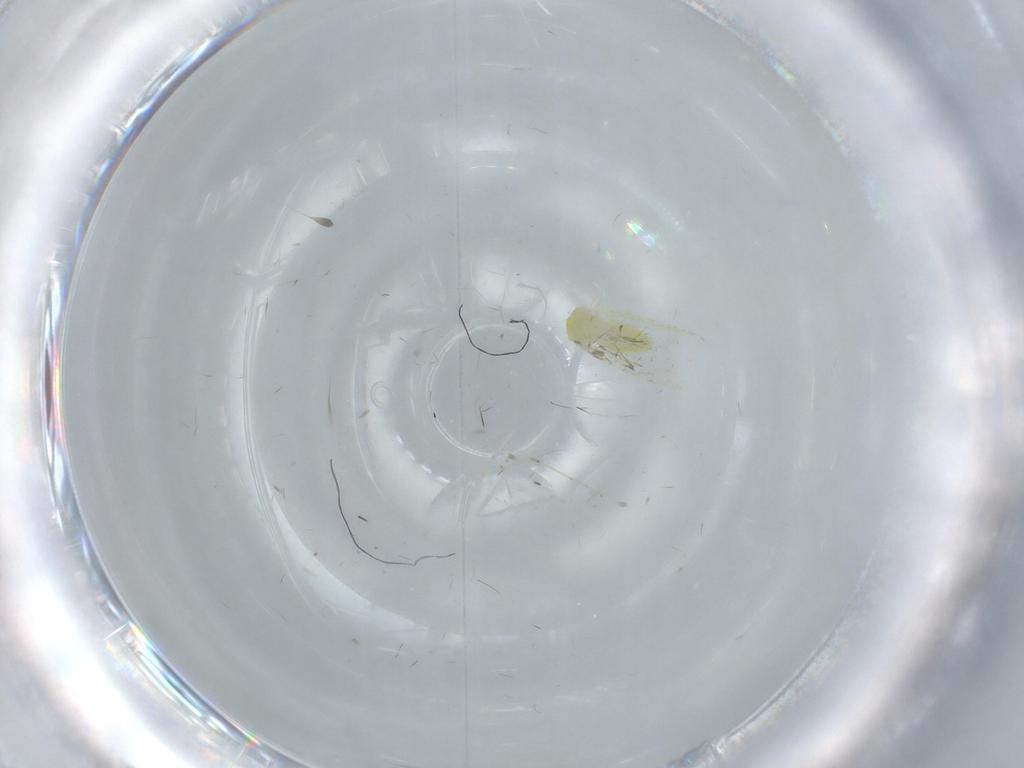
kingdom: Animalia
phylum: Arthropoda
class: Insecta
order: Hemiptera
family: Aleyrodidae
